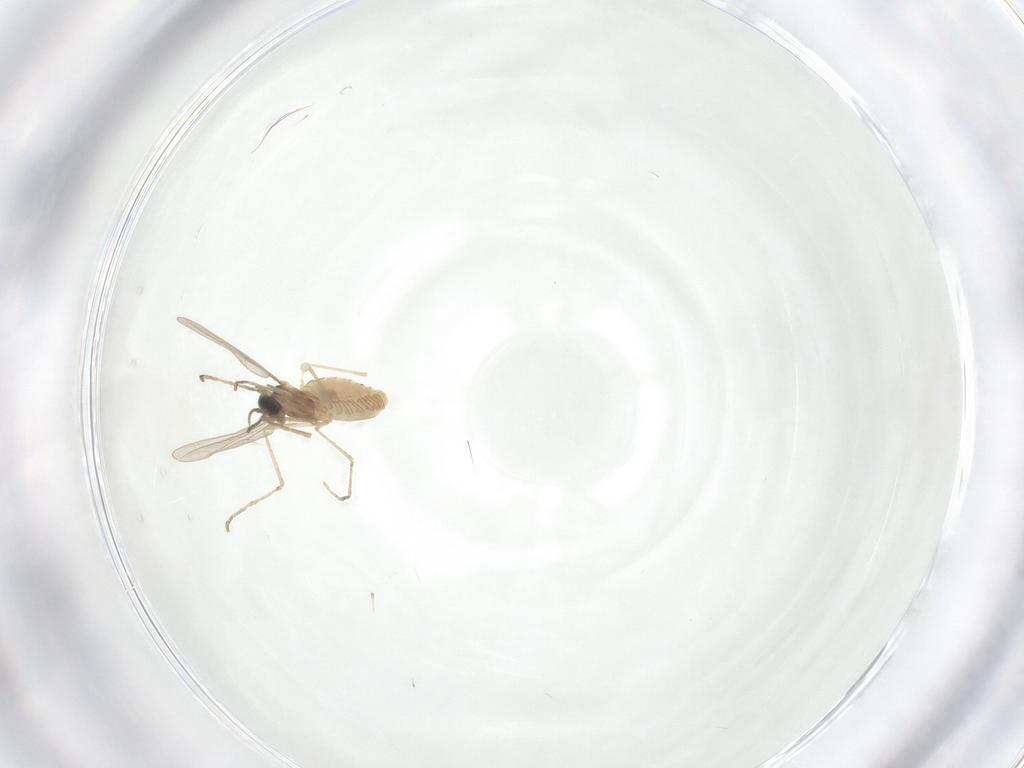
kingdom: Animalia
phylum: Arthropoda
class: Insecta
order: Diptera
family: Cecidomyiidae
